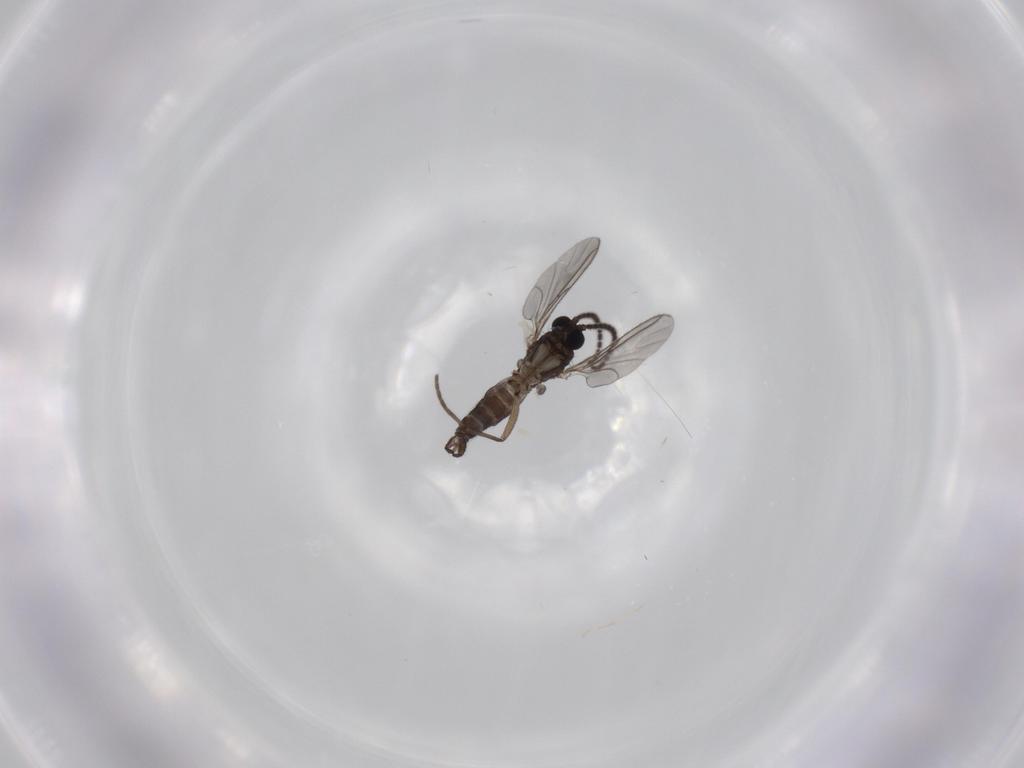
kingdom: Animalia
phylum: Arthropoda
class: Insecta
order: Diptera
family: Sciaridae
